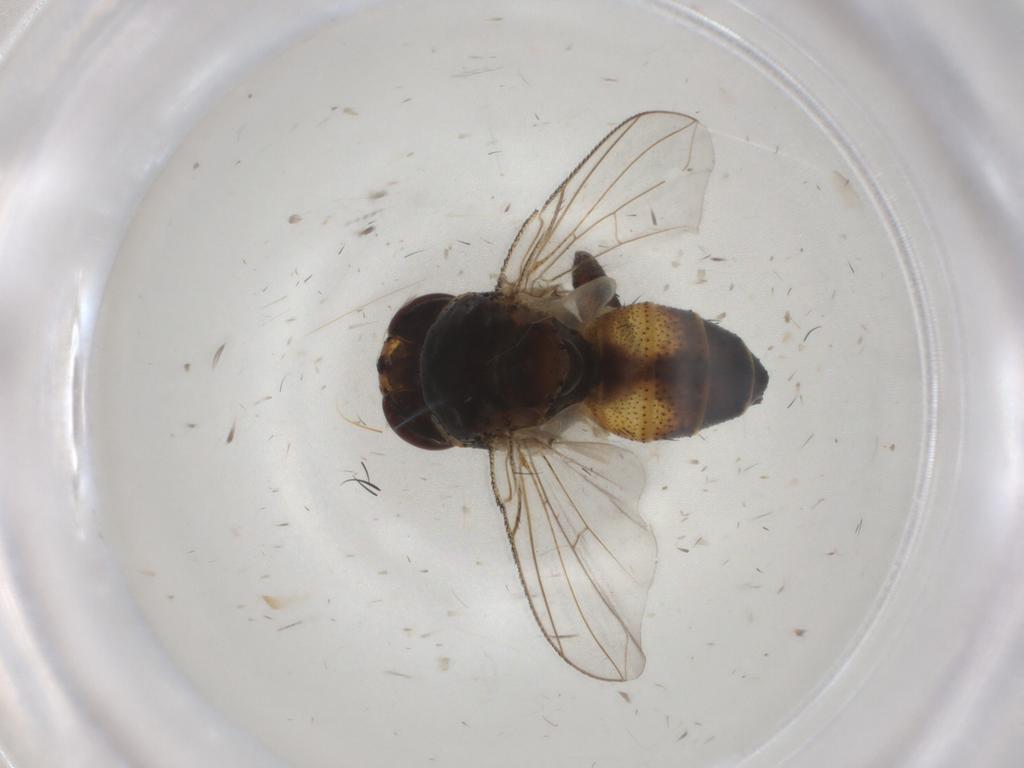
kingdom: Animalia
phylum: Arthropoda
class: Insecta
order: Diptera
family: Glossinidae
